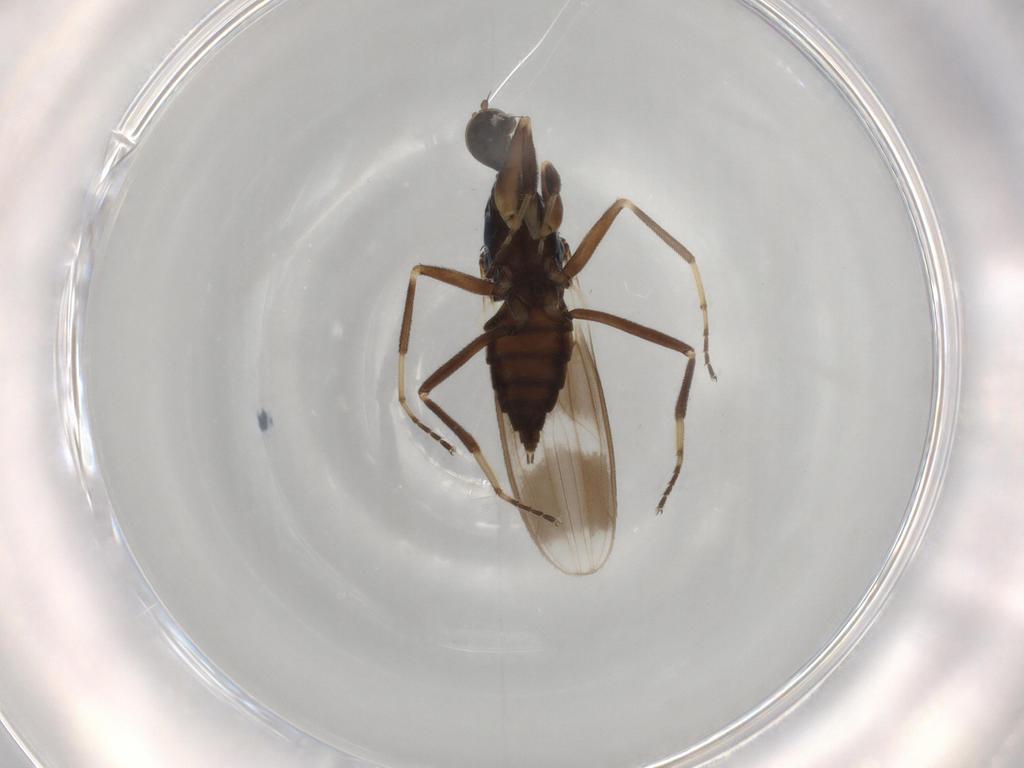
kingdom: Animalia
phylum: Arthropoda
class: Insecta
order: Diptera
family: Hybotidae
